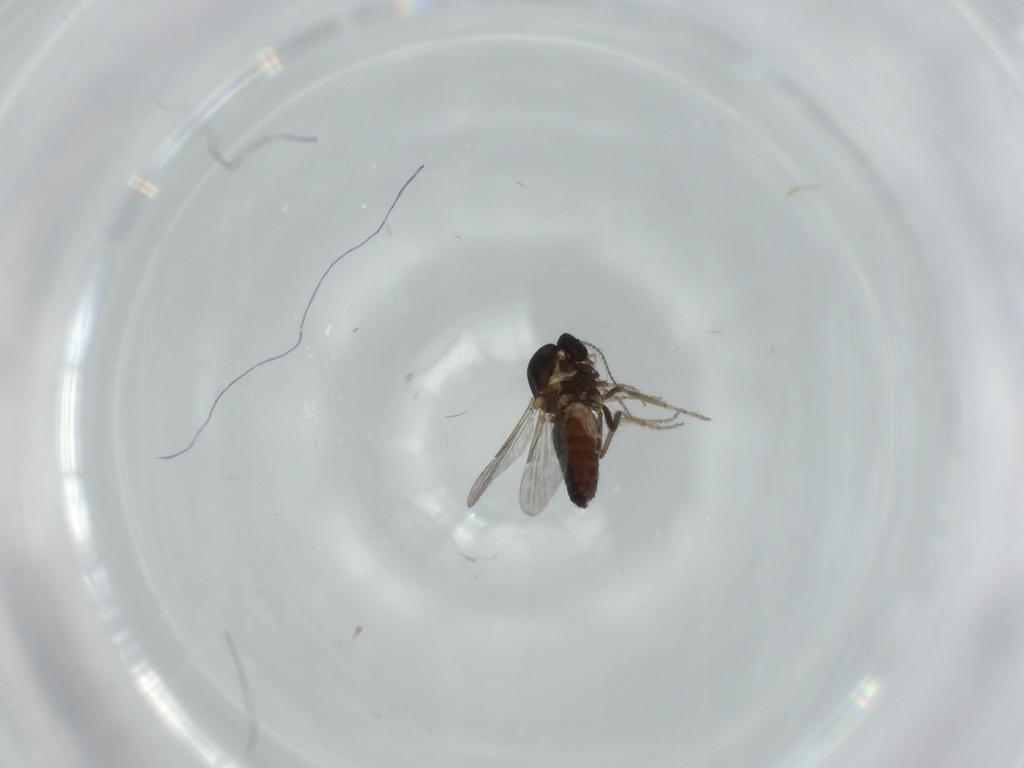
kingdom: Animalia
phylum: Arthropoda
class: Insecta
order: Diptera
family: Ceratopogonidae
